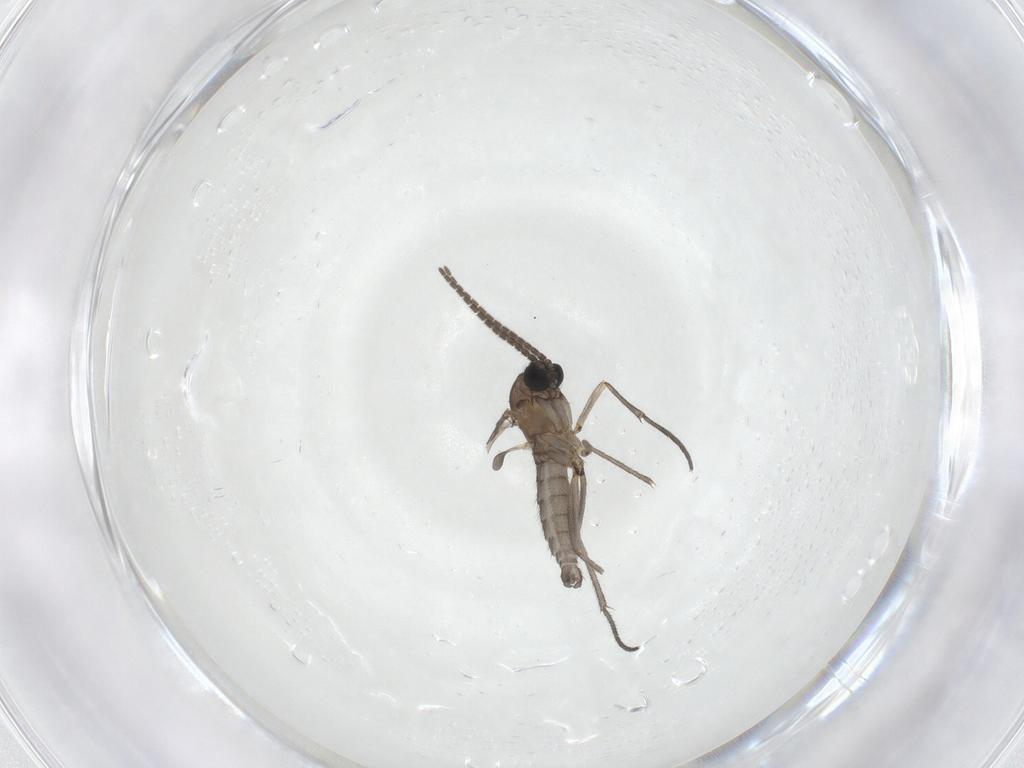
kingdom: Animalia
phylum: Arthropoda
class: Insecta
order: Diptera
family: Sciaridae
